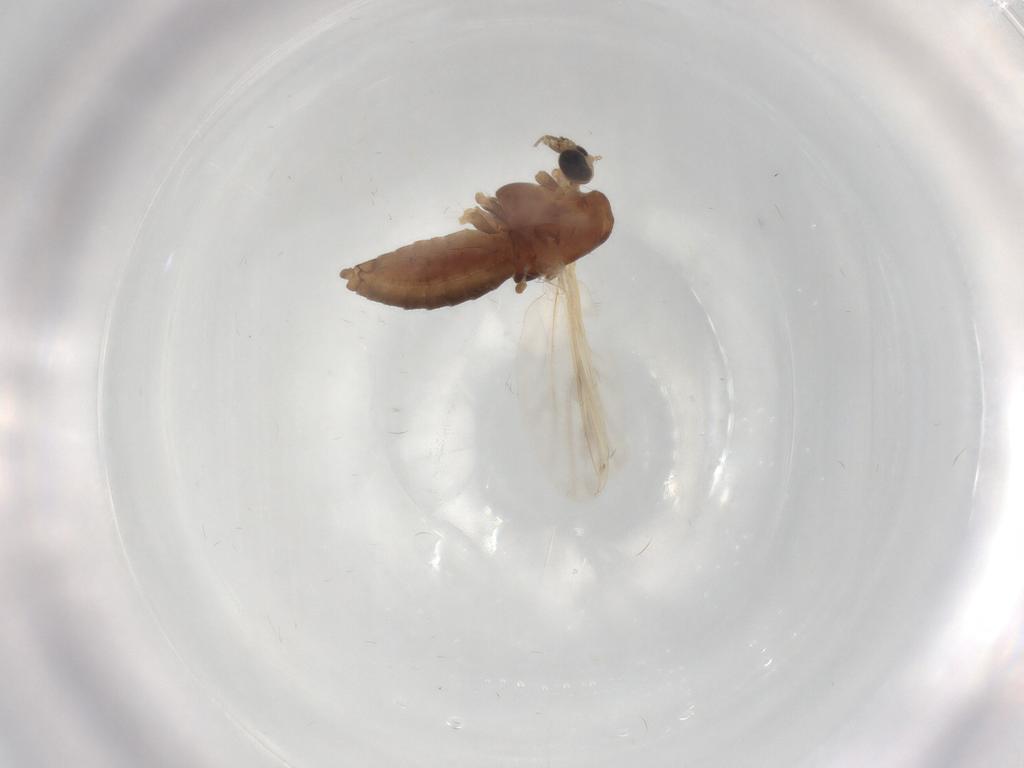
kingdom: Animalia
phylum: Arthropoda
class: Insecta
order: Diptera
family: Chironomidae
